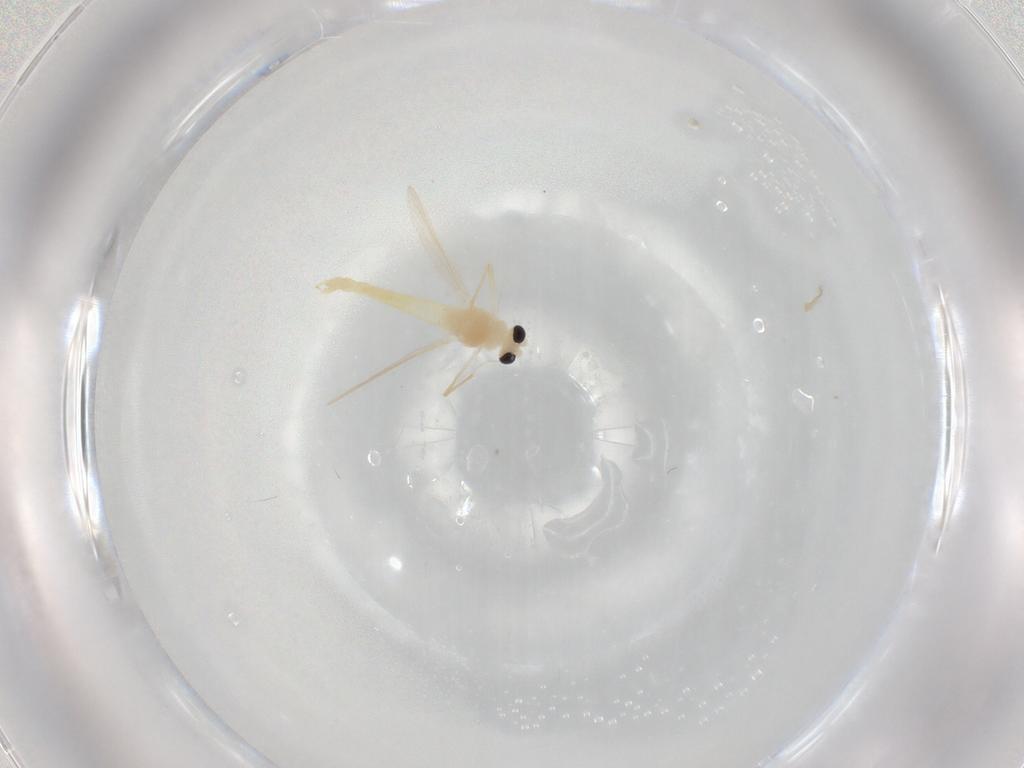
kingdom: Animalia
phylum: Arthropoda
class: Insecta
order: Diptera
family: Chironomidae
